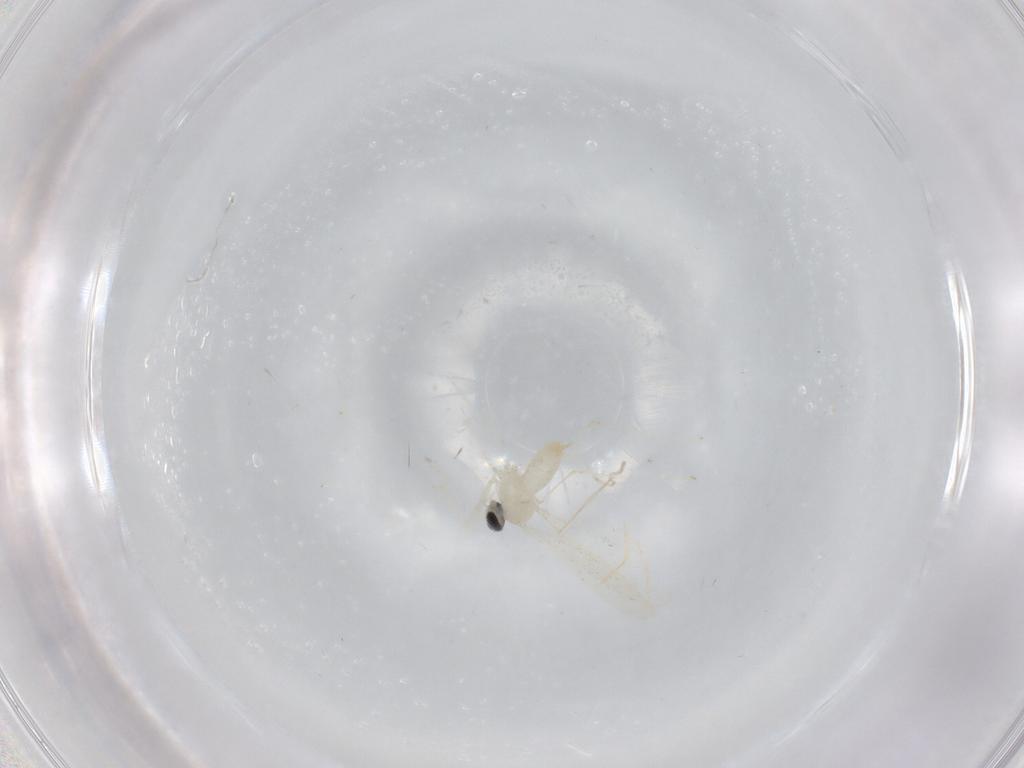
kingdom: Animalia
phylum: Arthropoda
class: Insecta
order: Diptera
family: Cecidomyiidae
